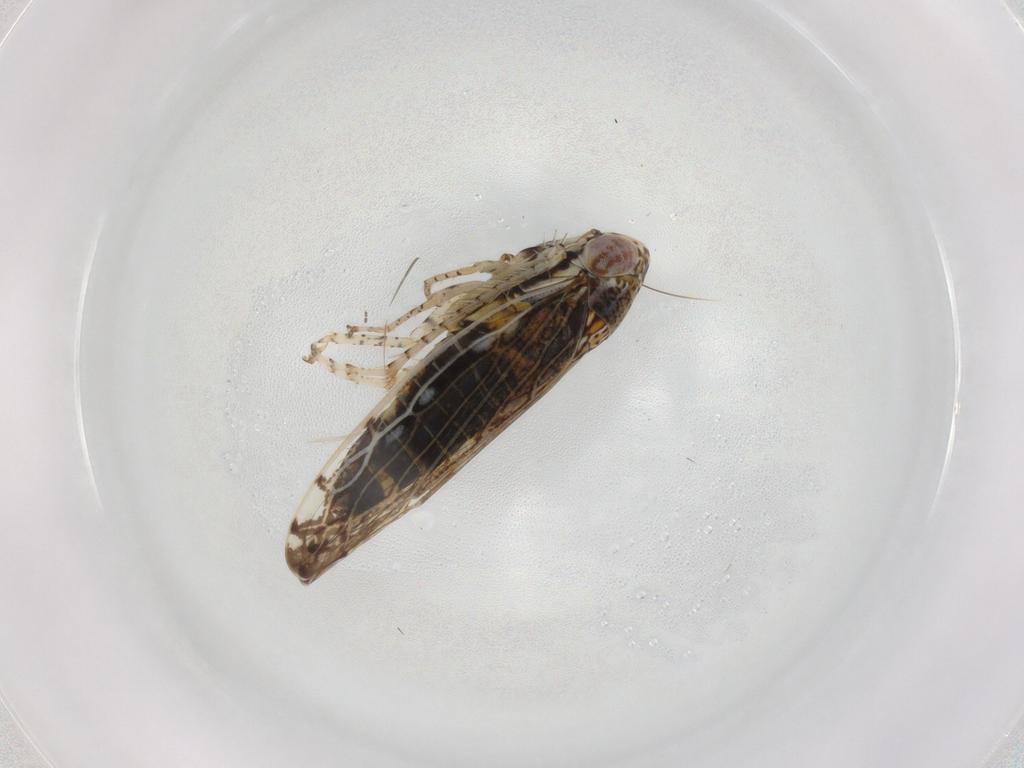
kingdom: Animalia
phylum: Arthropoda
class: Insecta
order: Hemiptera
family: Cicadellidae
